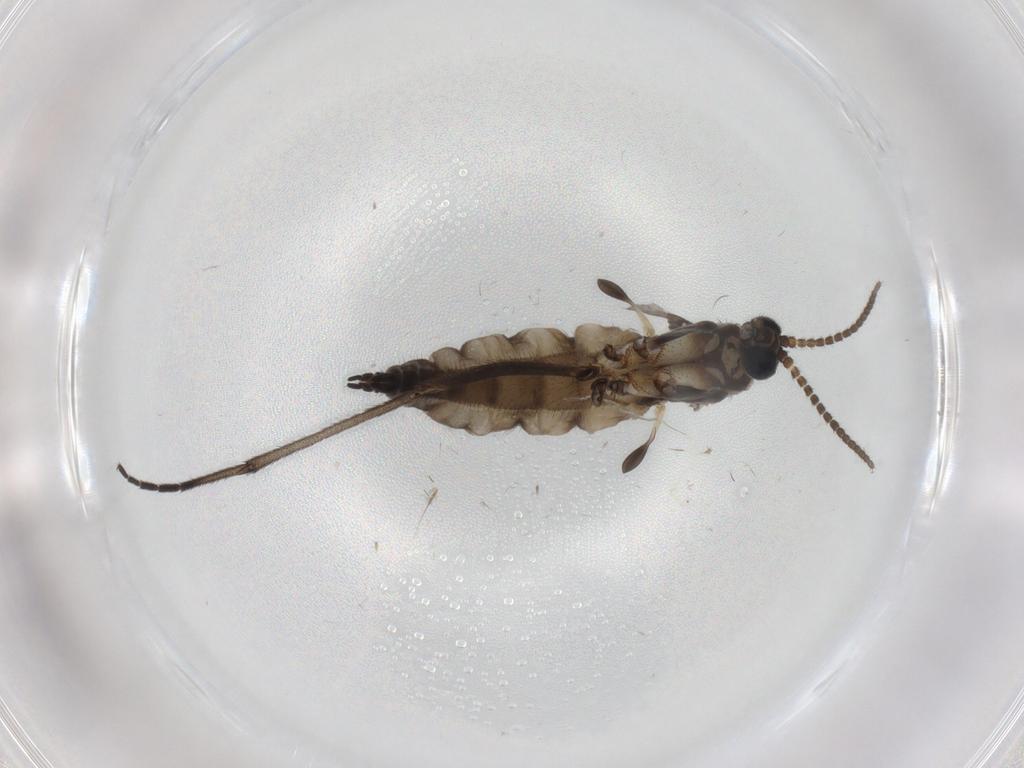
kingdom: Animalia
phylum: Arthropoda
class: Insecta
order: Diptera
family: Sciaridae
